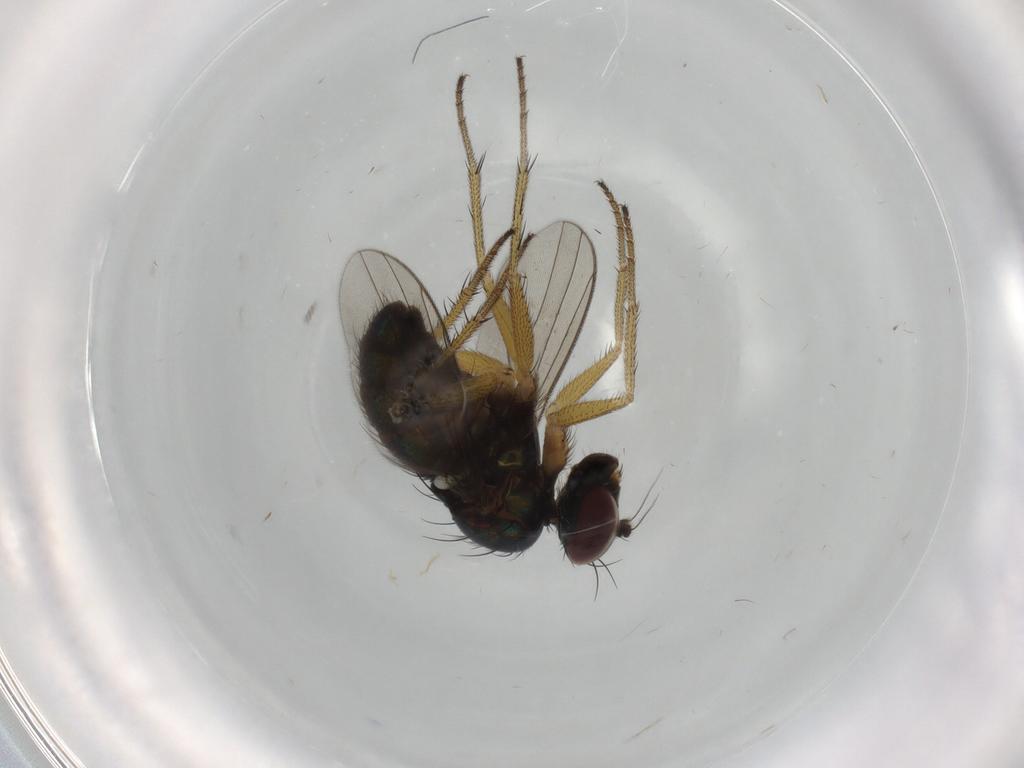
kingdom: Animalia
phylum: Arthropoda
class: Insecta
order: Diptera
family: Dolichopodidae
